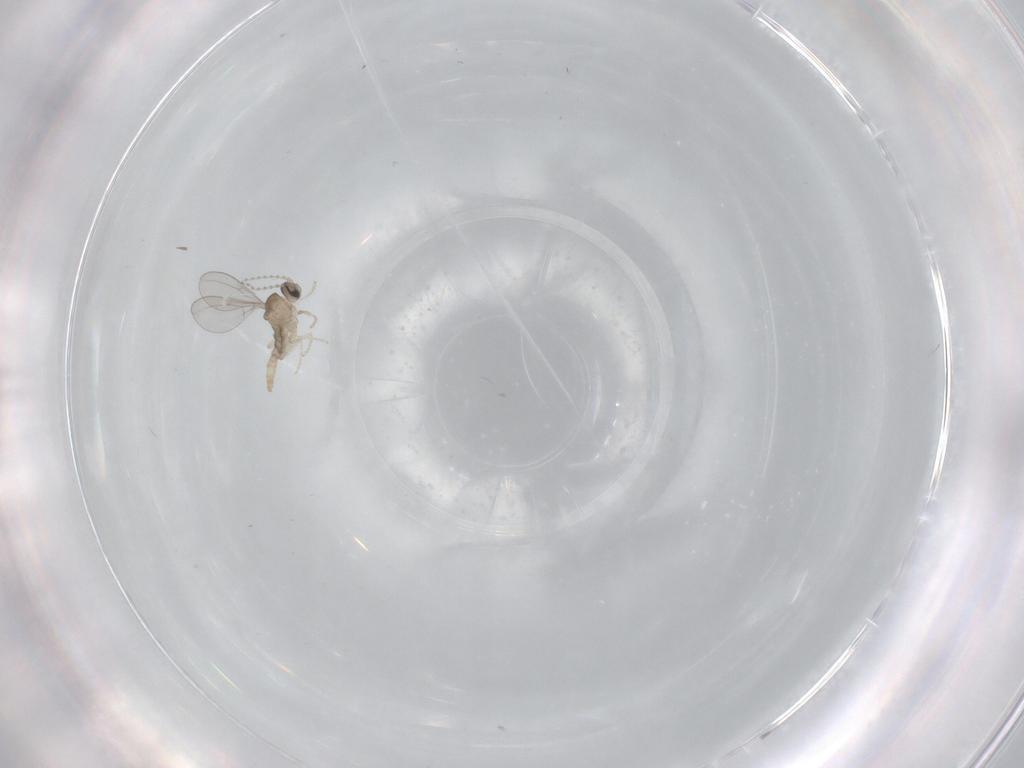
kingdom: Animalia
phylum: Arthropoda
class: Insecta
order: Diptera
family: Cecidomyiidae
